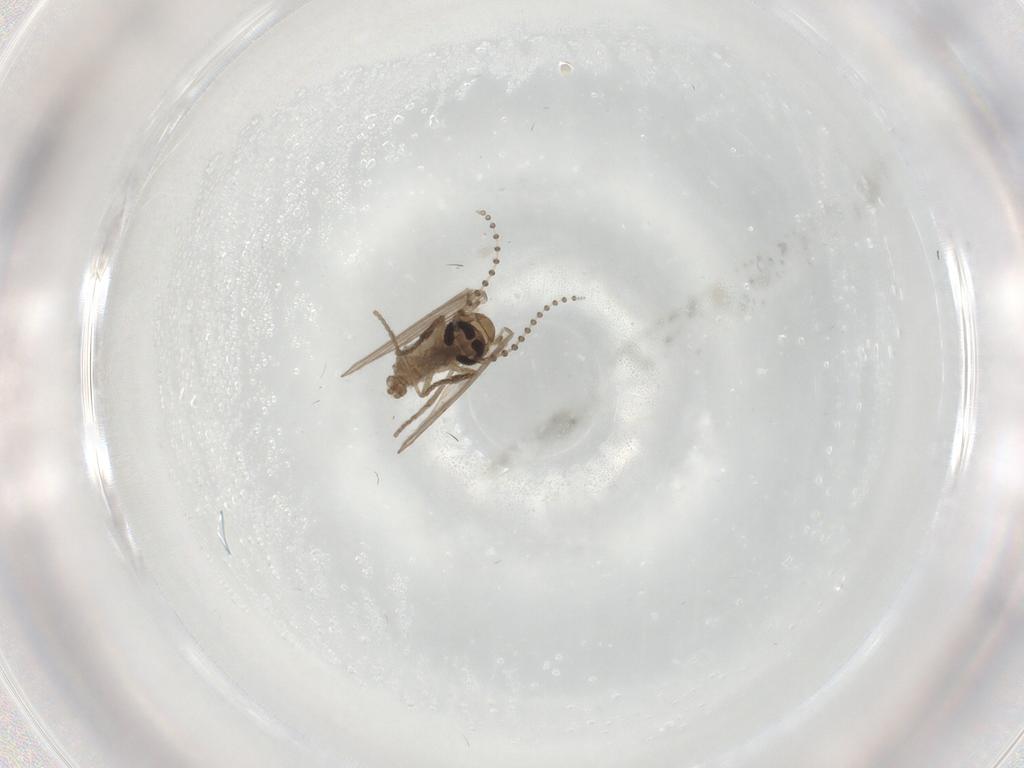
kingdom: Animalia
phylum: Arthropoda
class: Insecta
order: Diptera
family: Psychodidae
